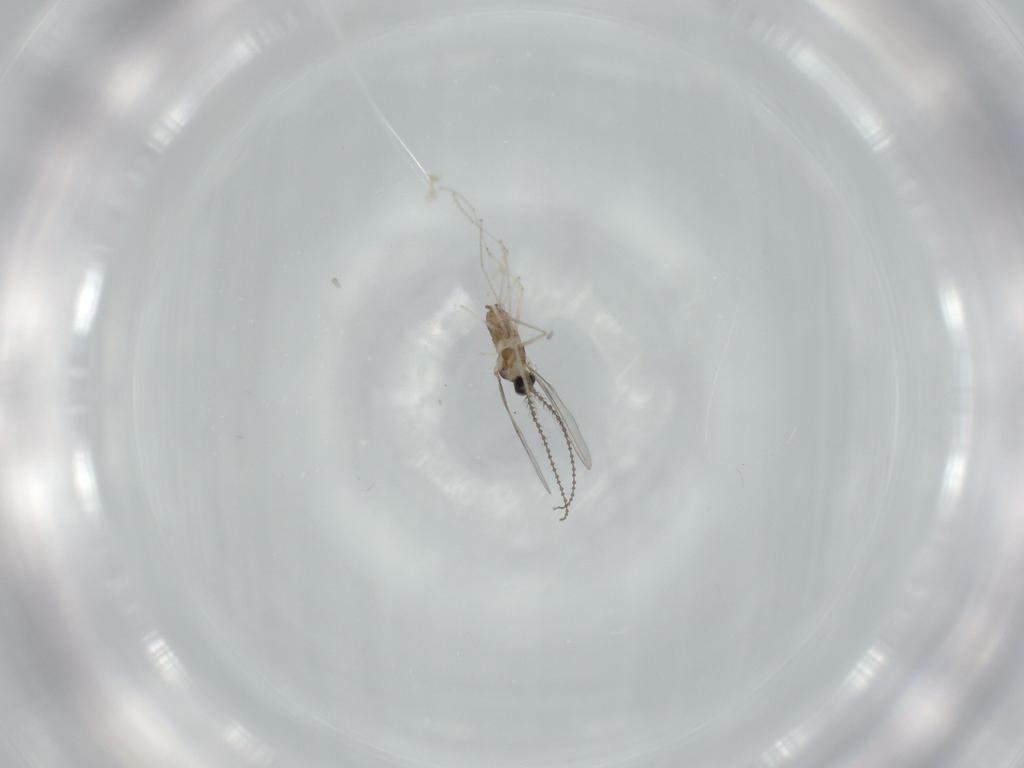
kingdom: Animalia
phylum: Arthropoda
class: Insecta
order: Diptera
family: Cecidomyiidae
